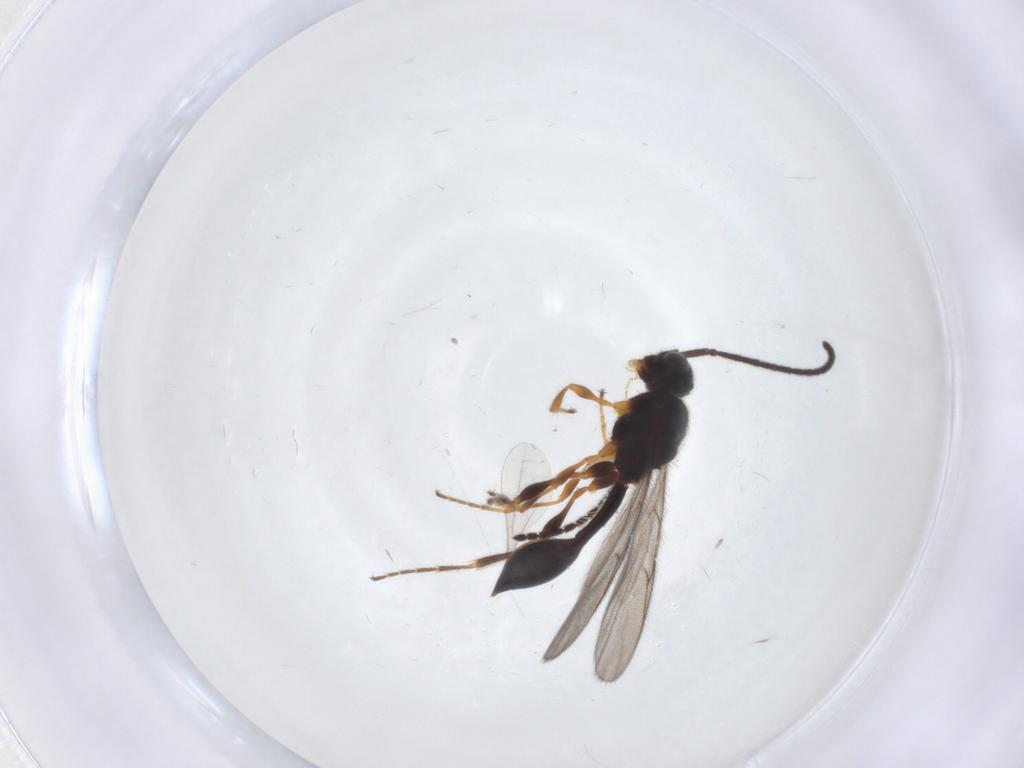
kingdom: Animalia
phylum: Arthropoda
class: Insecta
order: Hymenoptera
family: Diapriidae
